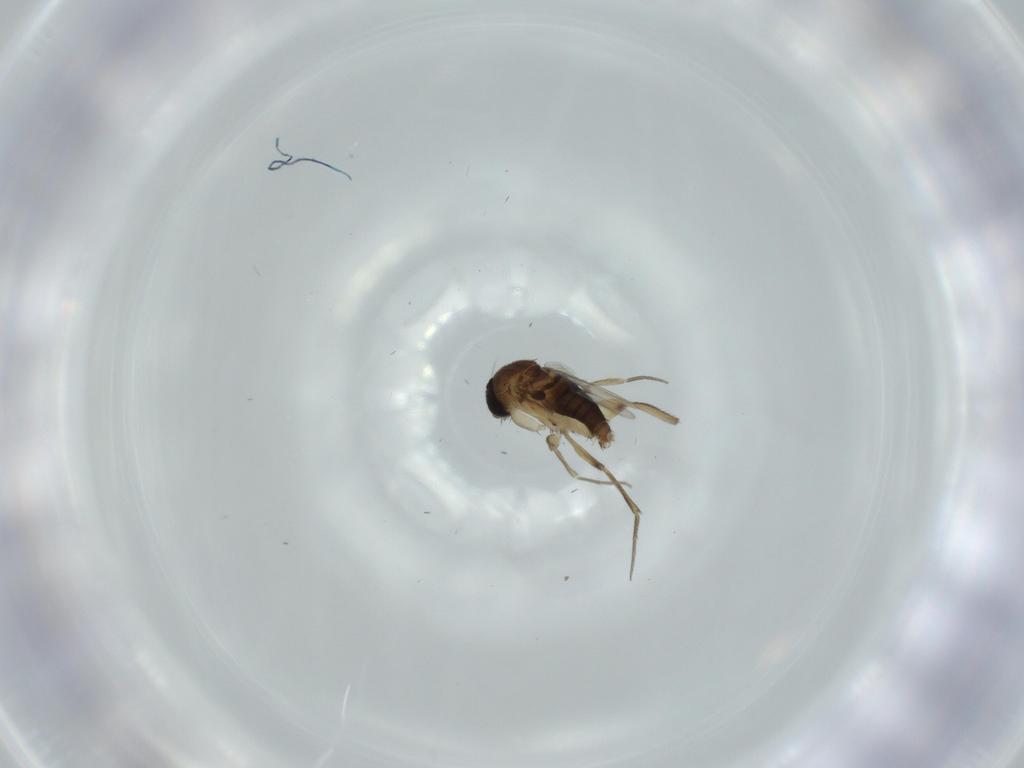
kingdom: Animalia
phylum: Arthropoda
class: Insecta
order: Diptera
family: Phoridae
